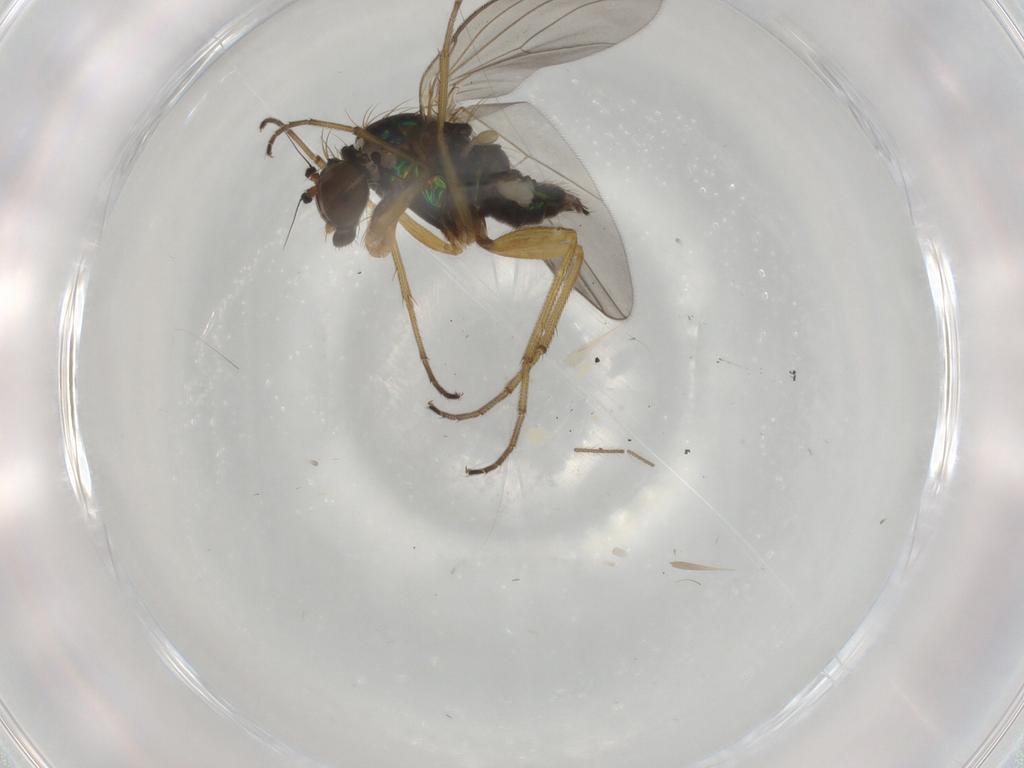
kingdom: Animalia
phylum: Arthropoda
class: Insecta
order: Diptera
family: Dolichopodidae
